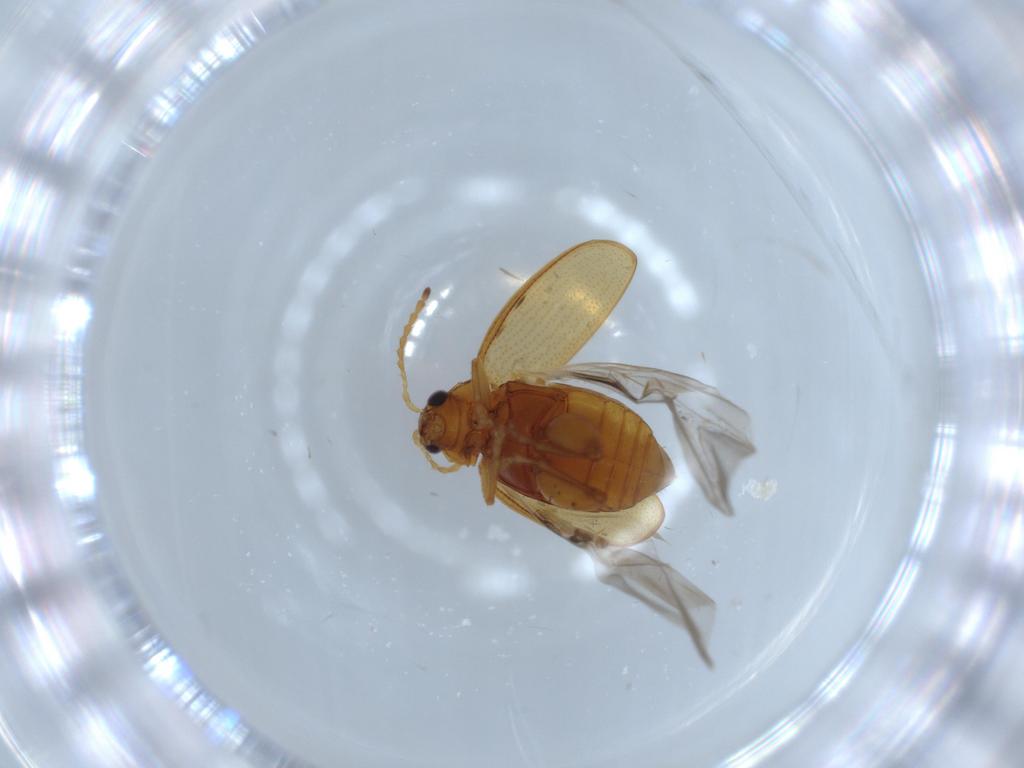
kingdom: Animalia
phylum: Arthropoda
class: Insecta
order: Coleoptera
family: Chrysomelidae
